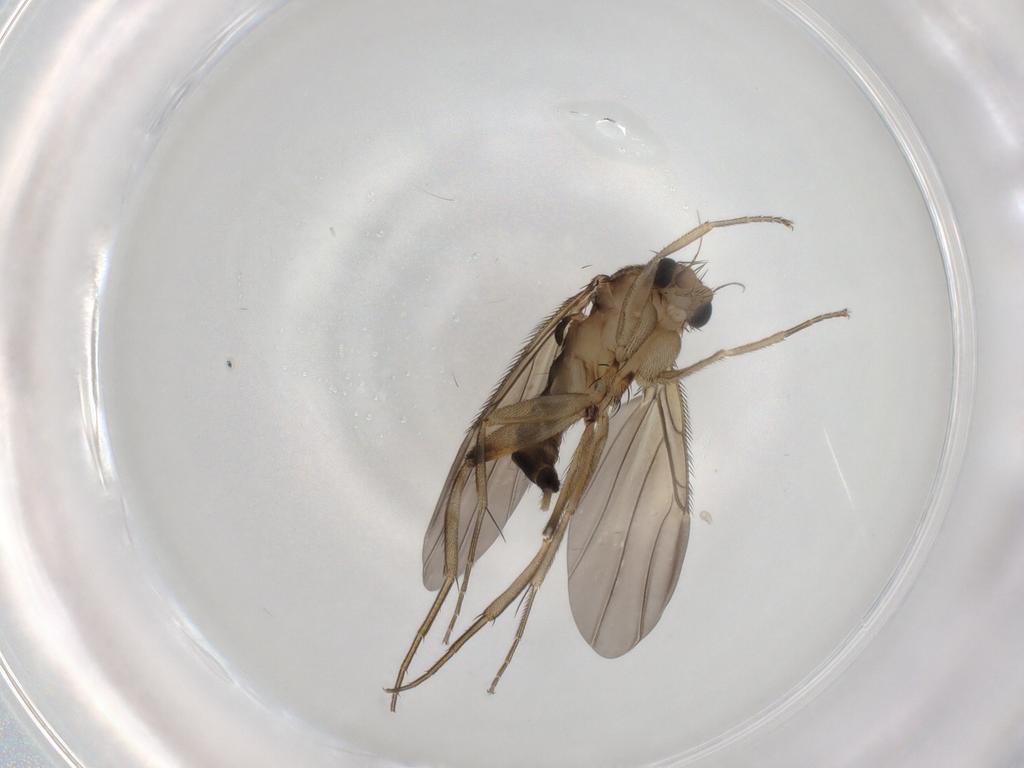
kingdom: Animalia
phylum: Arthropoda
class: Insecta
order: Diptera
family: Phoridae
